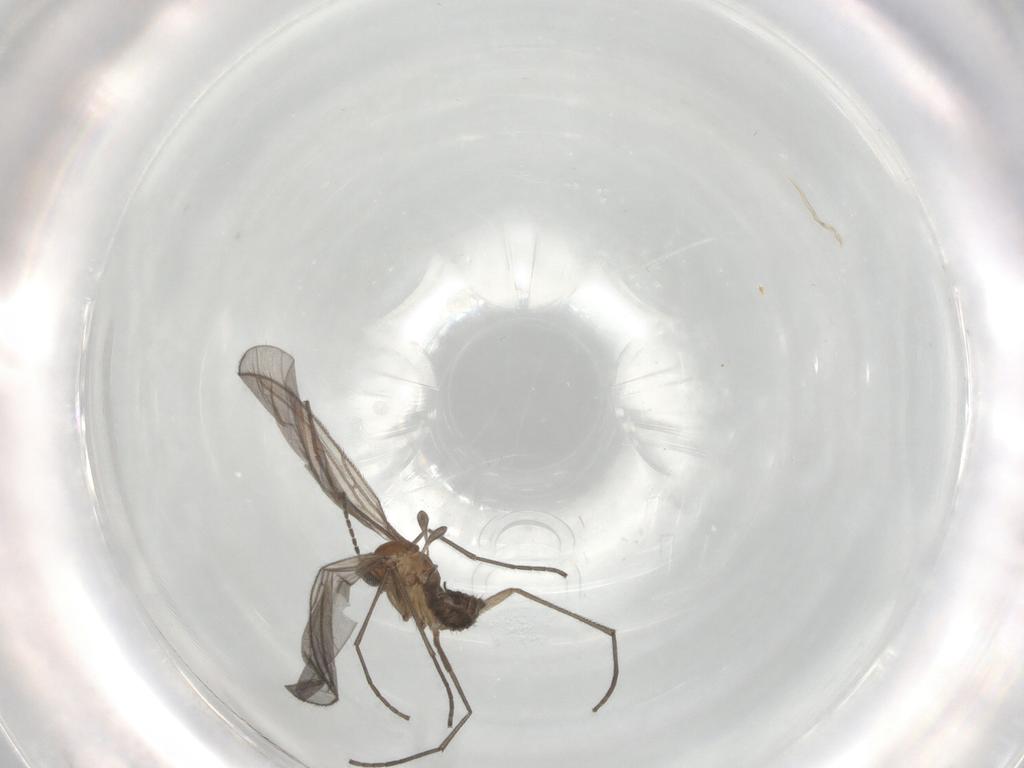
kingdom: Animalia
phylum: Arthropoda
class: Insecta
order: Diptera
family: Sciaridae
